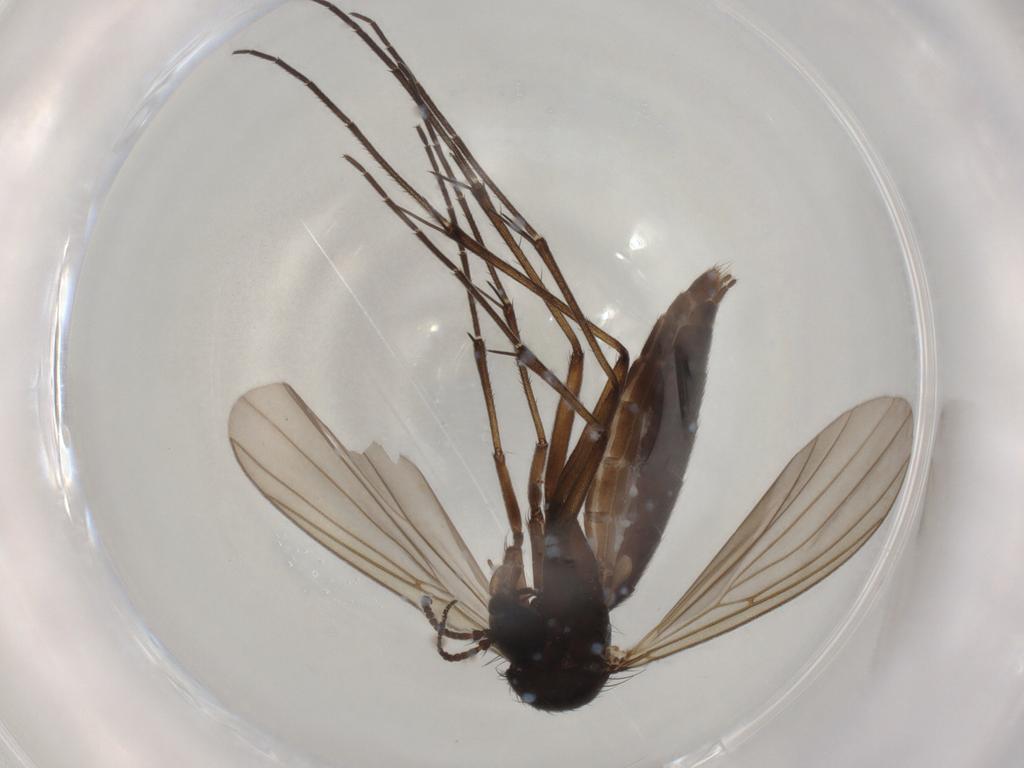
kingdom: Animalia
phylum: Arthropoda
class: Insecta
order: Diptera
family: Mycetophilidae
